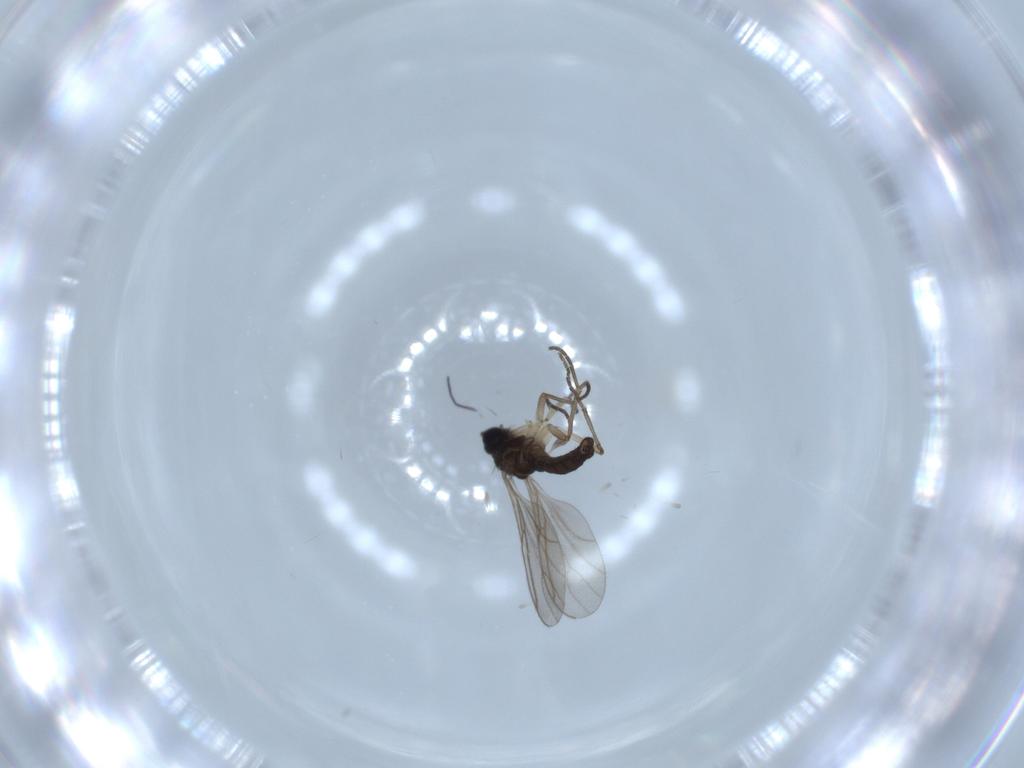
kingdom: Animalia
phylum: Arthropoda
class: Insecta
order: Diptera
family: Sciaridae
